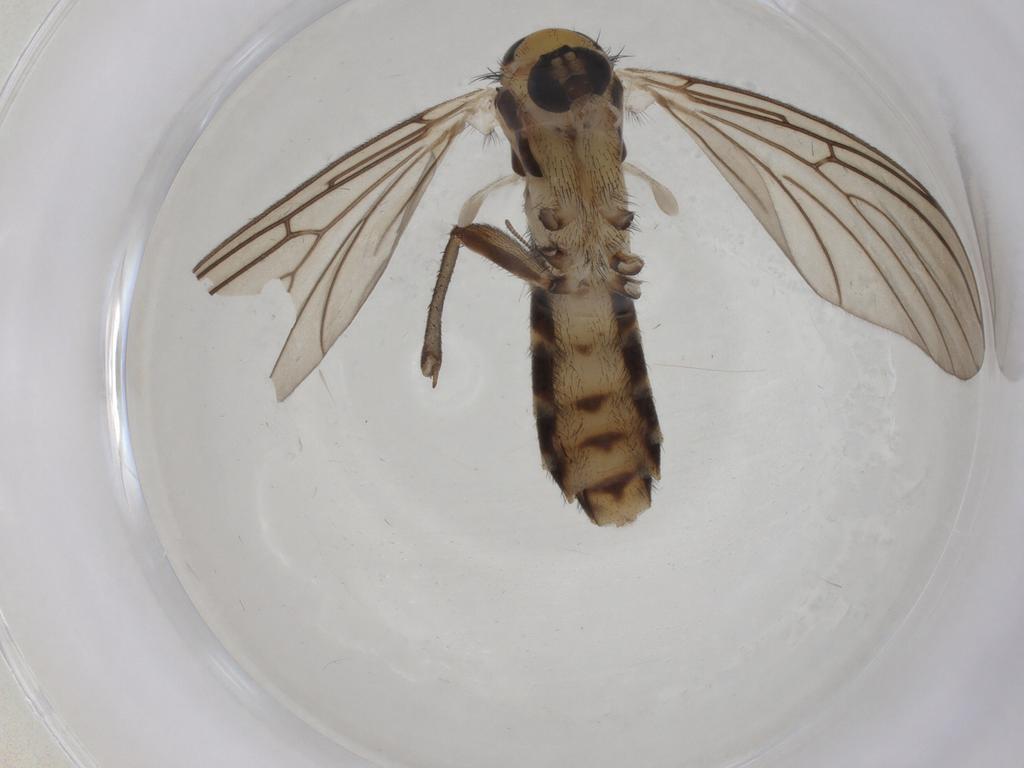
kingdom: Animalia
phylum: Arthropoda
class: Insecta
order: Diptera
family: Mycetophilidae
